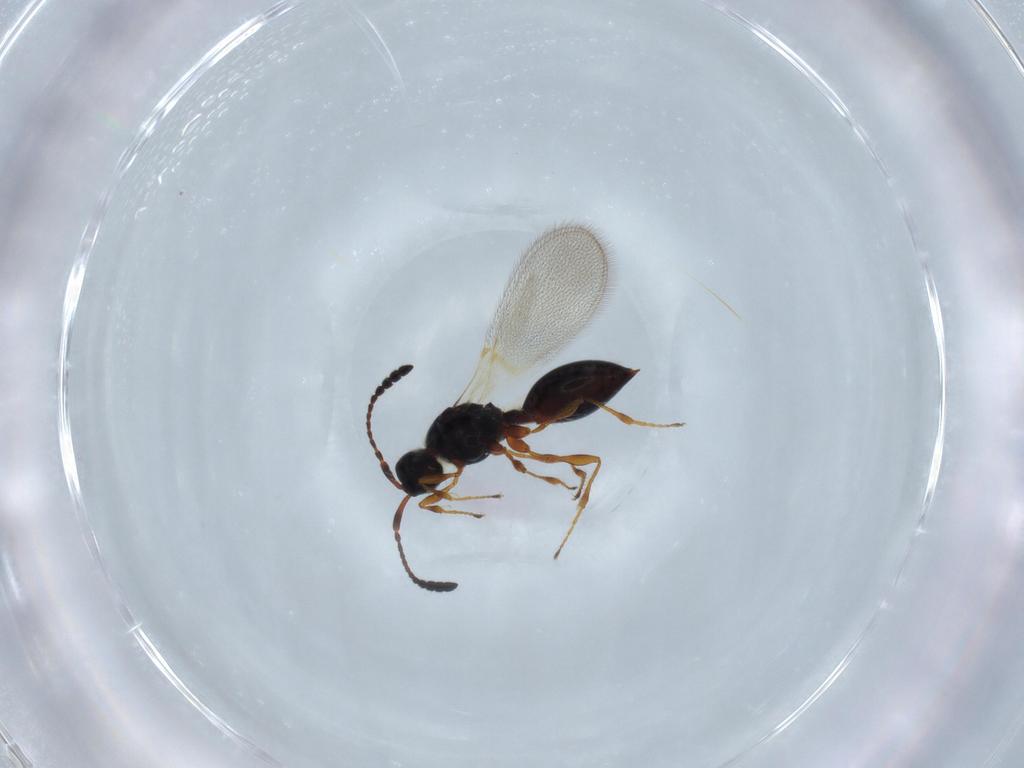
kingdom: Animalia
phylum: Arthropoda
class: Insecta
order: Hymenoptera
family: Diapriidae
